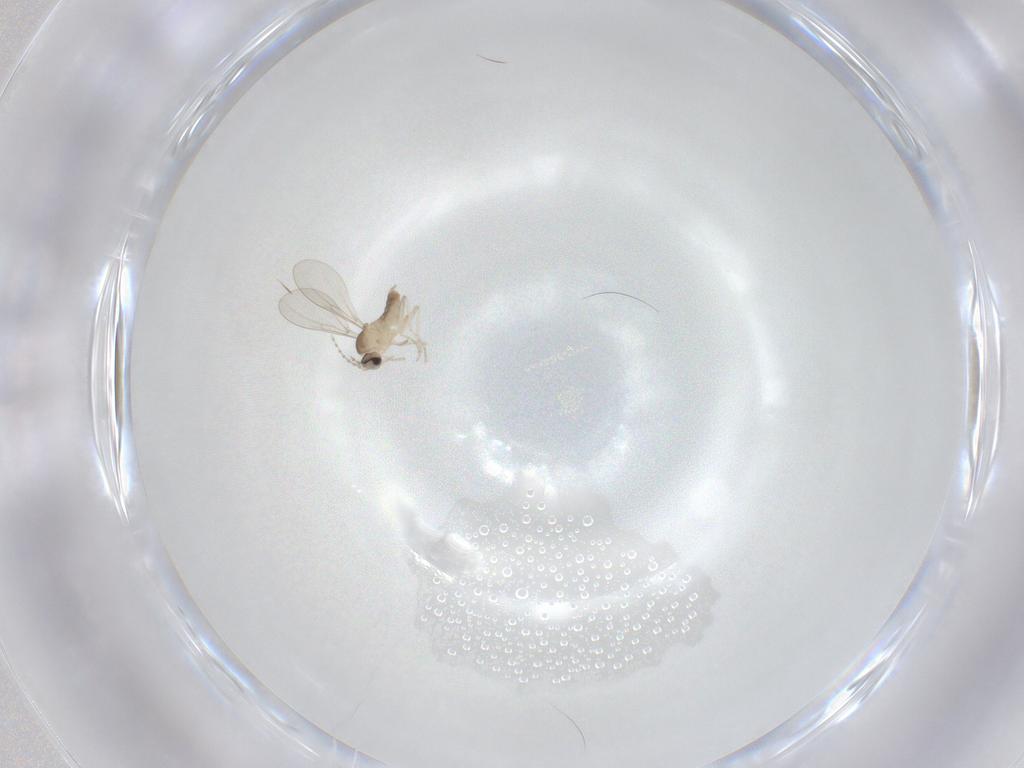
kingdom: Animalia
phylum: Arthropoda
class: Insecta
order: Diptera
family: Cecidomyiidae
